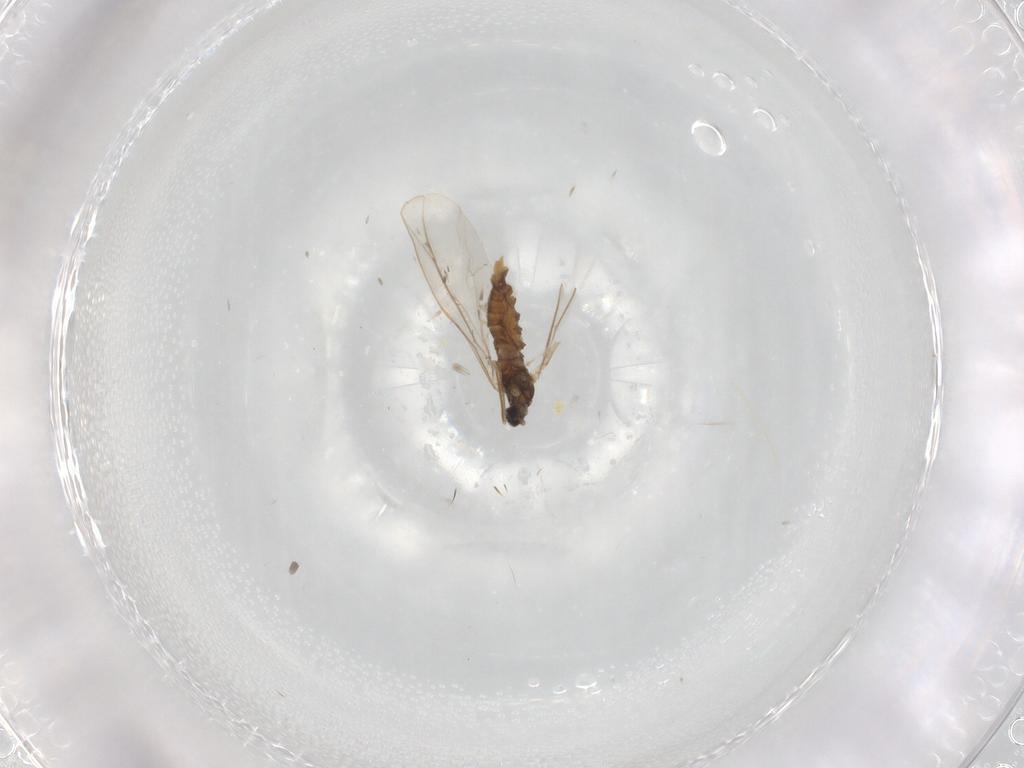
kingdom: Animalia
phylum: Arthropoda
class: Insecta
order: Diptera
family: Cecidomyiidae
